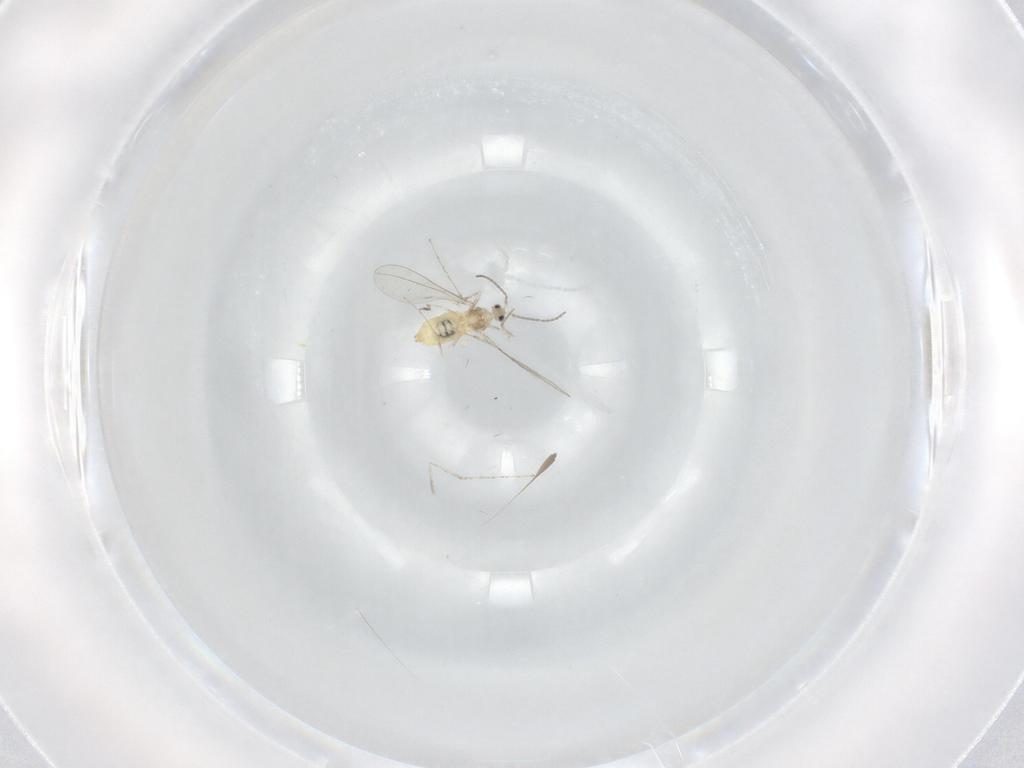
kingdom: Animalia
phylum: Arthropoda
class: Insecta
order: Diptera
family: Cecidomyiidae
